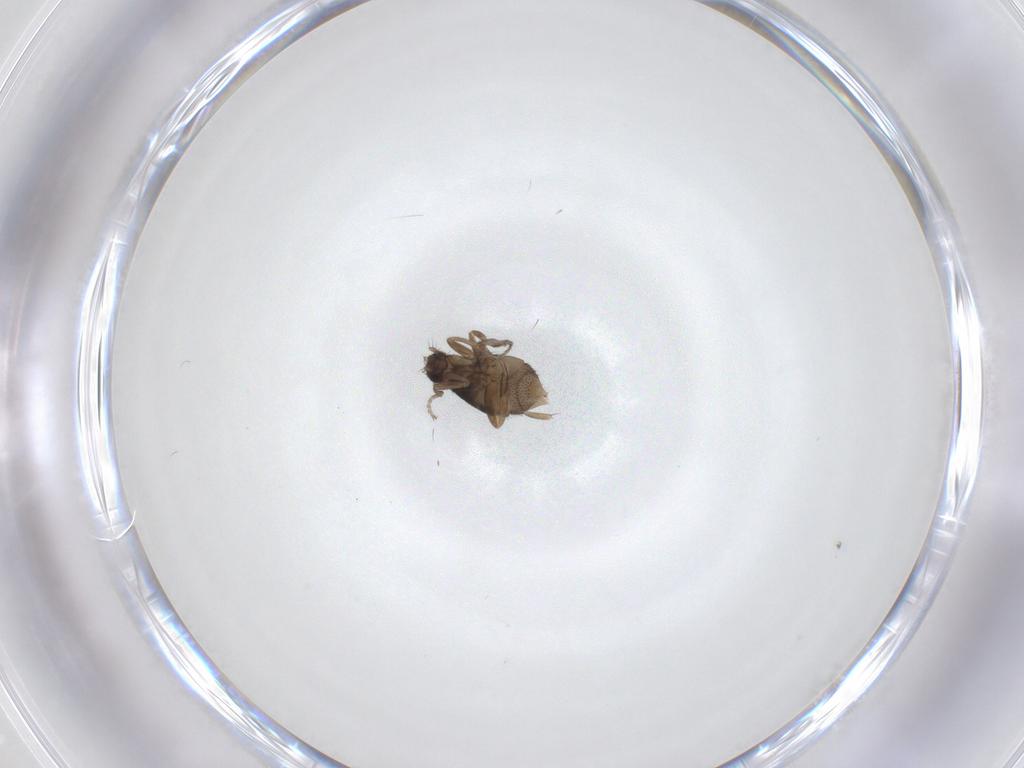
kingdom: Animalia
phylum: Arthropoda
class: Insecta
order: Diptera
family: Phoridae
